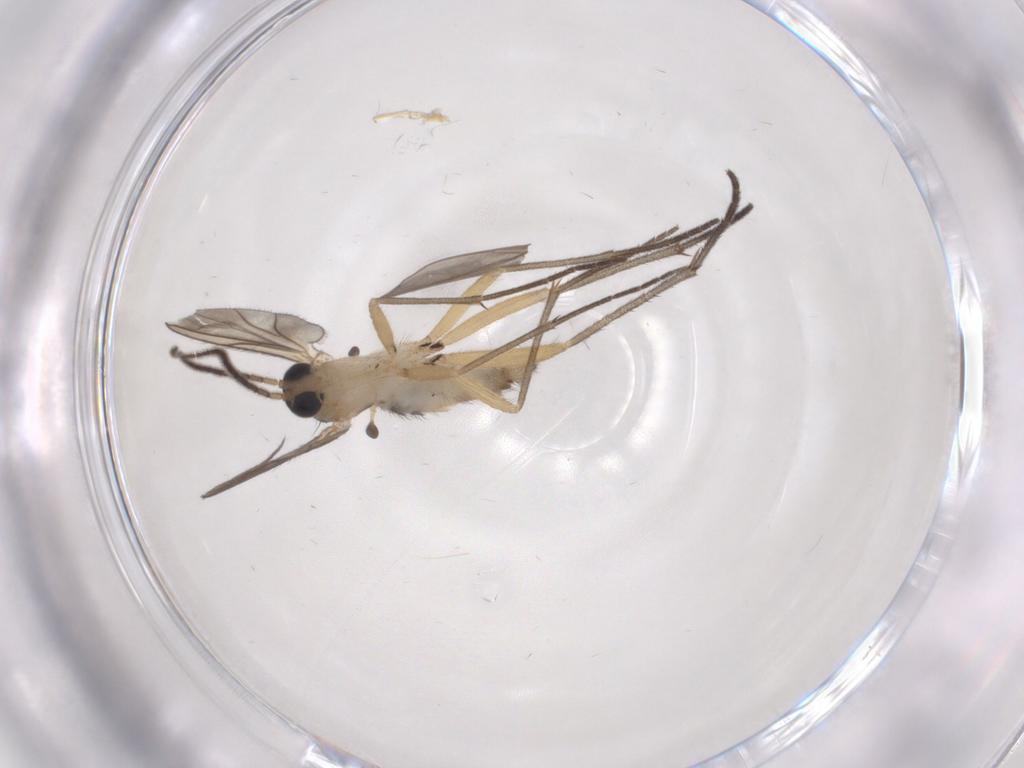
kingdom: Animalia
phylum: Arthropoda
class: Insecta
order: Diptera
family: Sciaridae
